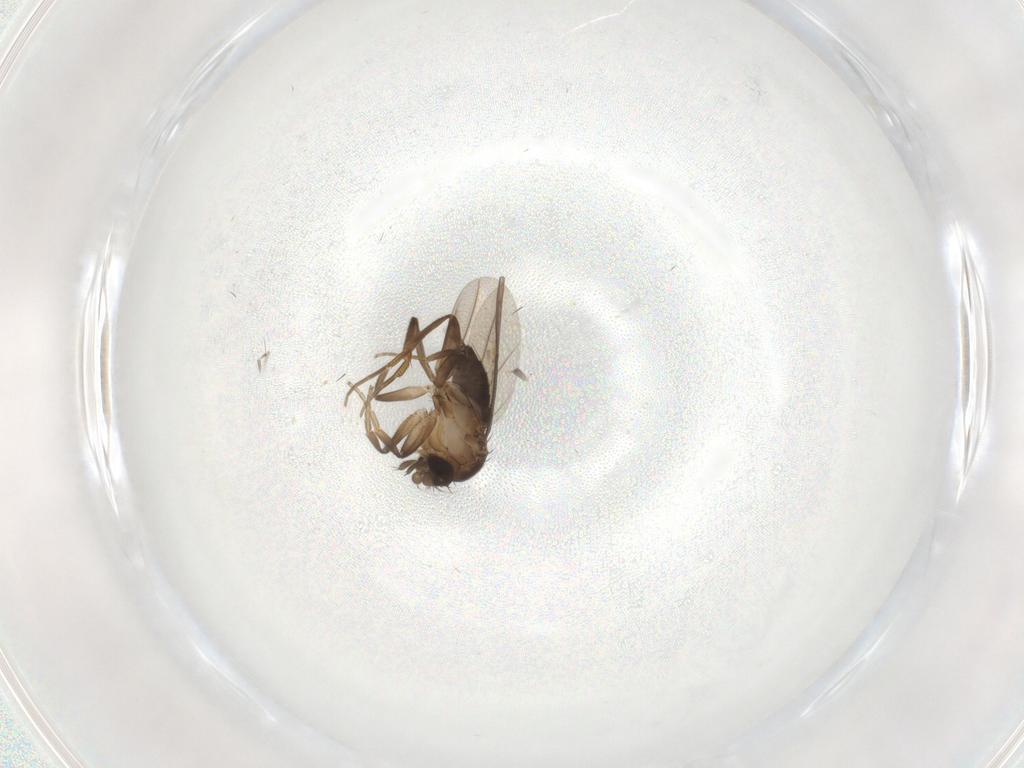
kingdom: Animalia
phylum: Arthropoda
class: Insecta
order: Diptera
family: Phoridae
